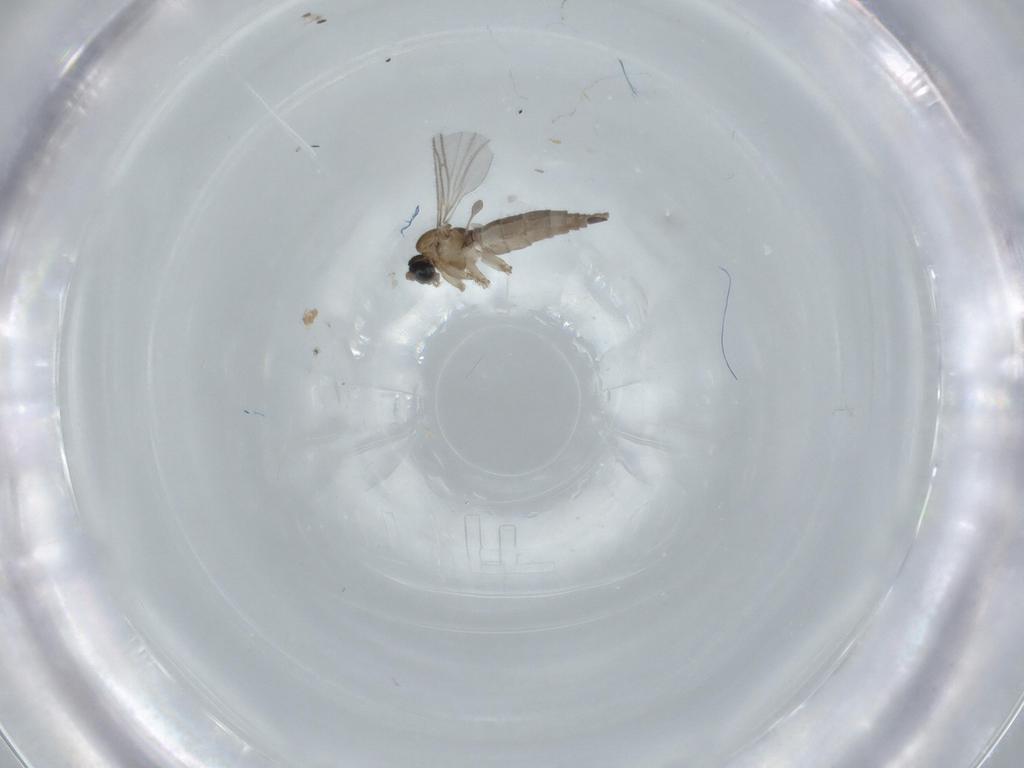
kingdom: Animalia
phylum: Arthropoda
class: Insecta
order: Diptera
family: Sciaridae
